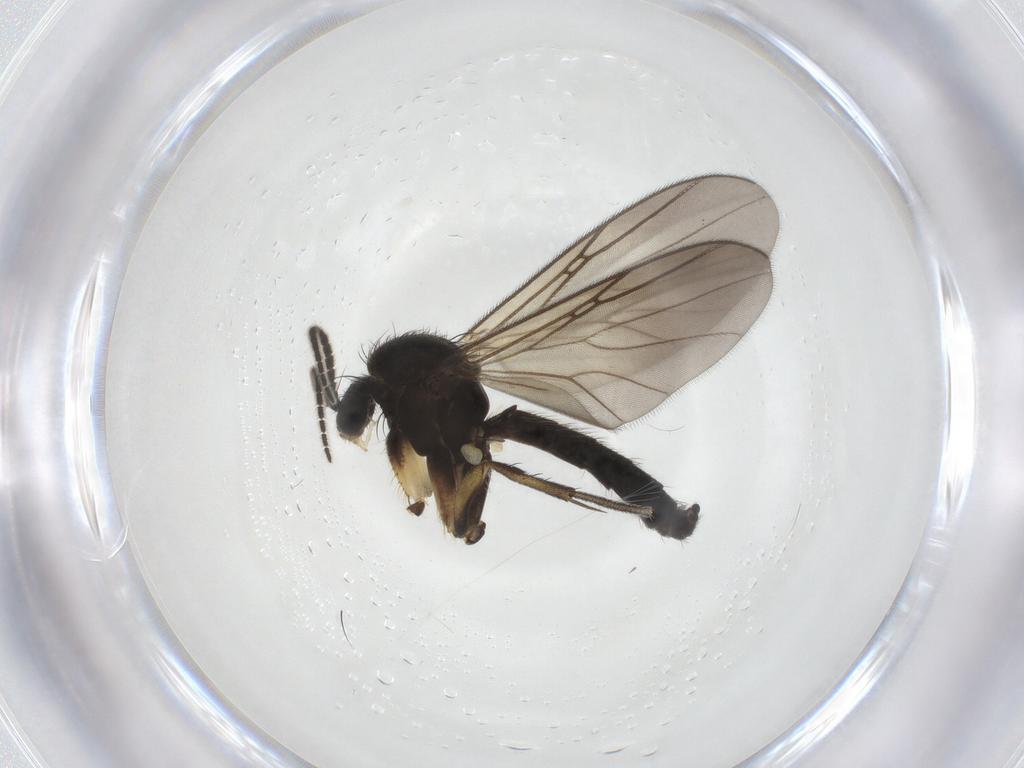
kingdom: Animalia
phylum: Arthropoda
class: Insecta
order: Diptera
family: Mycetophilidae
